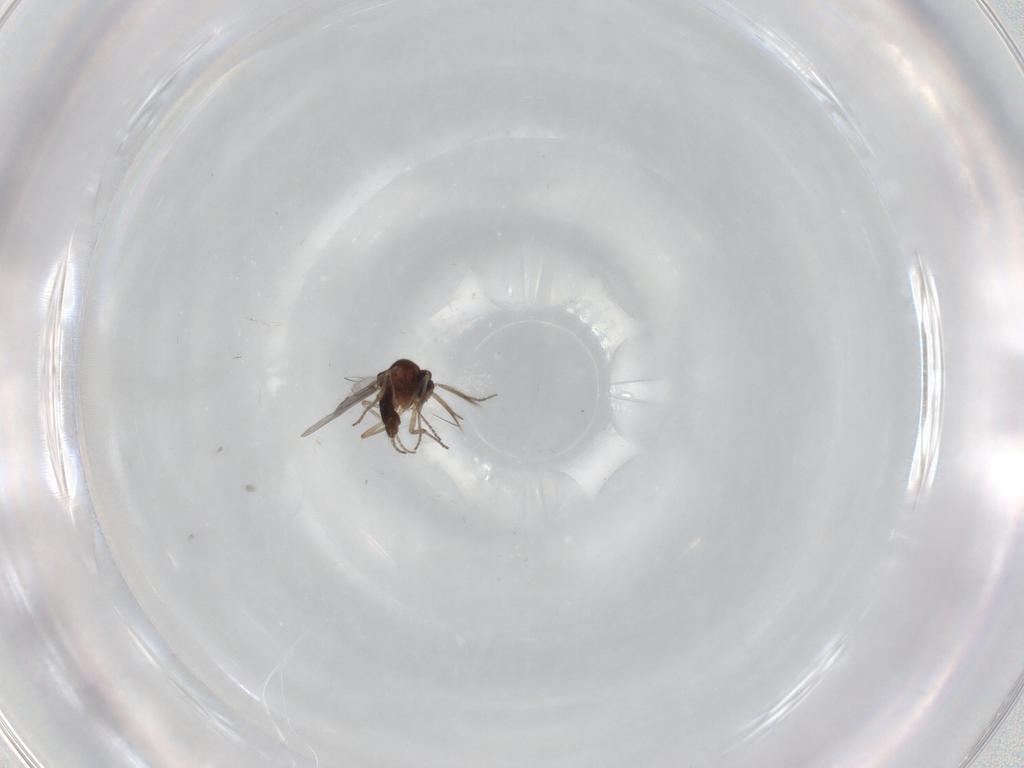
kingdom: Animalia
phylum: Arthropoda
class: Insecta
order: Diptera
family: Ceratopogonidae
